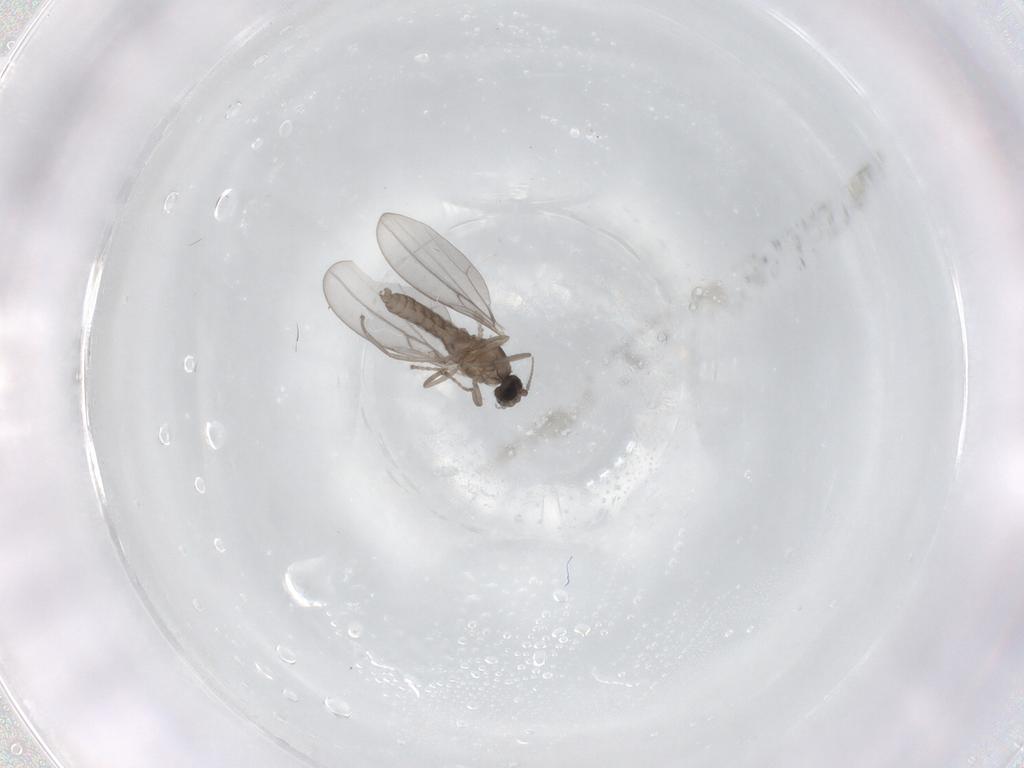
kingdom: Animalia
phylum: Arthropoda
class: Insecta
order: Diptera
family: Cecidomyiidae
